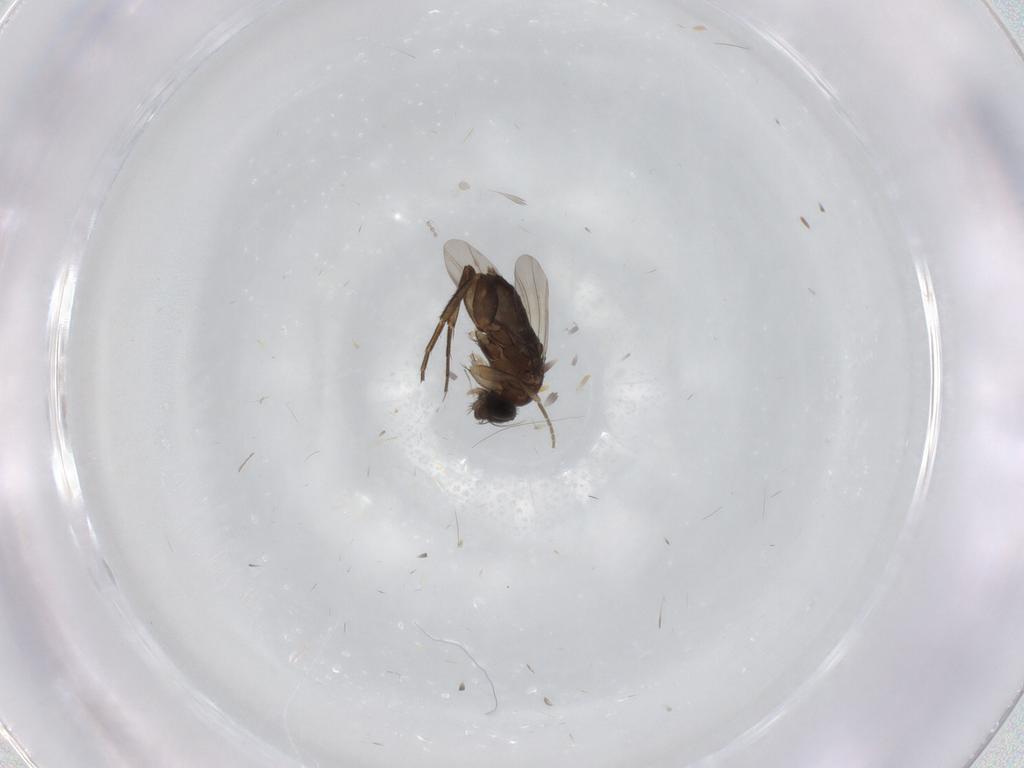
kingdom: Animalia
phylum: Arthropoda
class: Insecta
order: Diptera
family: Phoridae
